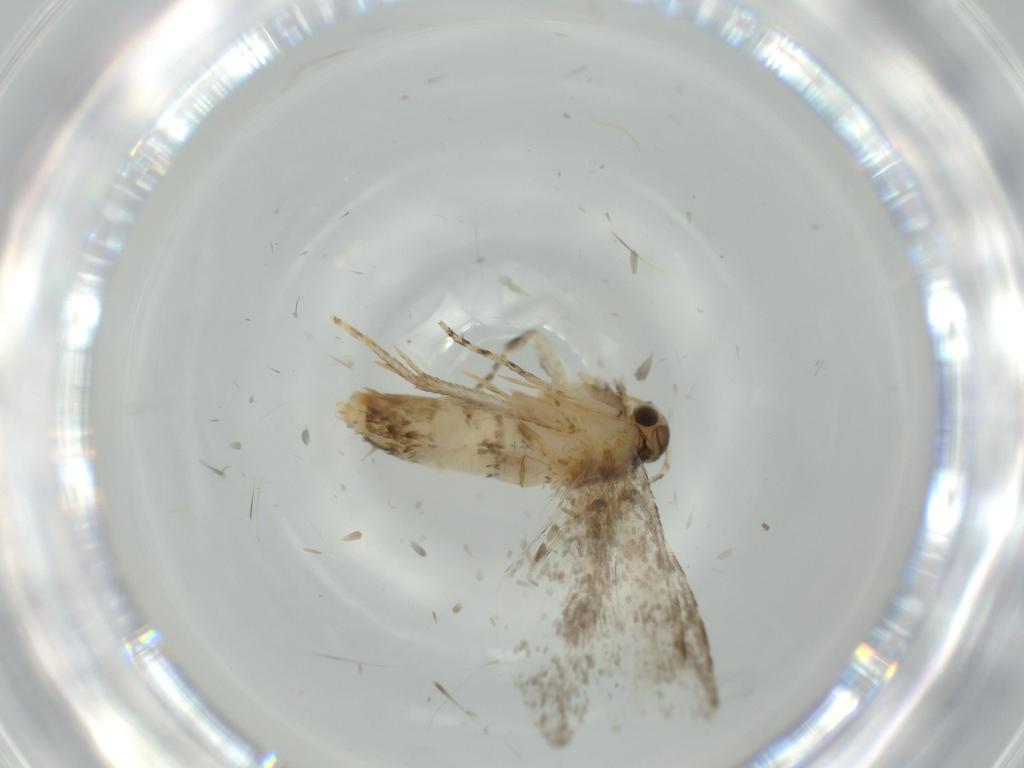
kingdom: Animalia
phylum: Arthropoda
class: Insecta
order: Lepidoptera
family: Tineidae
